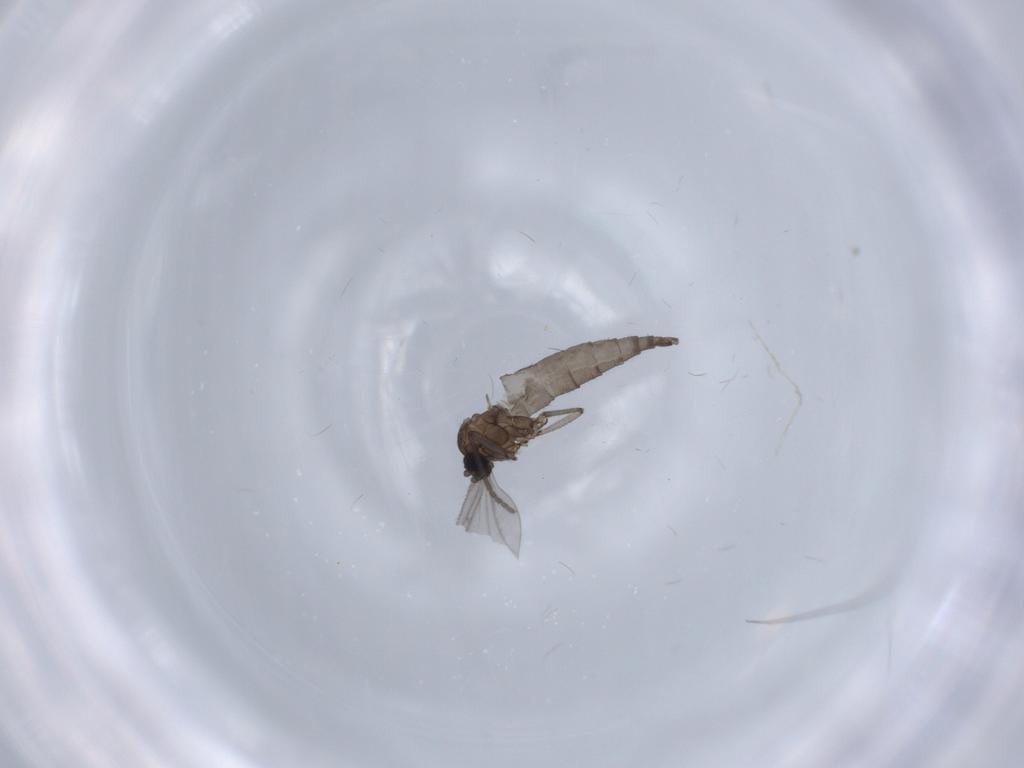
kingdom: Animalia
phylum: Arthropoda
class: Insecta
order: Diptera
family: Sciaridae
